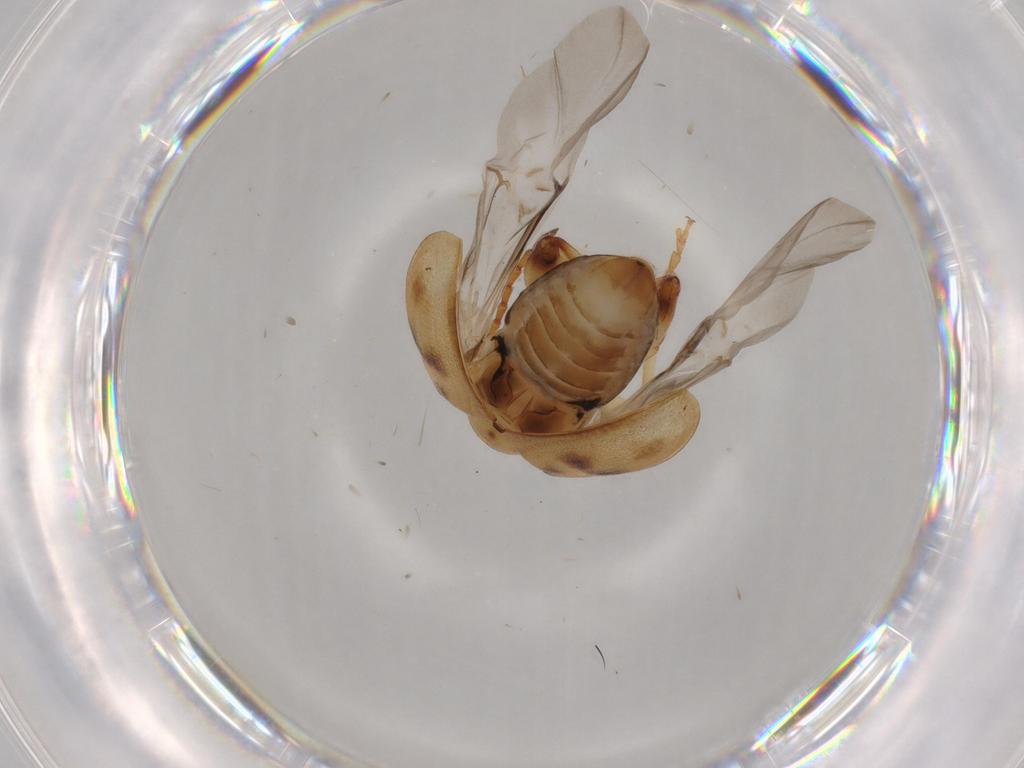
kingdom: Animalia
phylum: Arthropoda
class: Insecta
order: Coleoptera
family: Chrysomelidae
